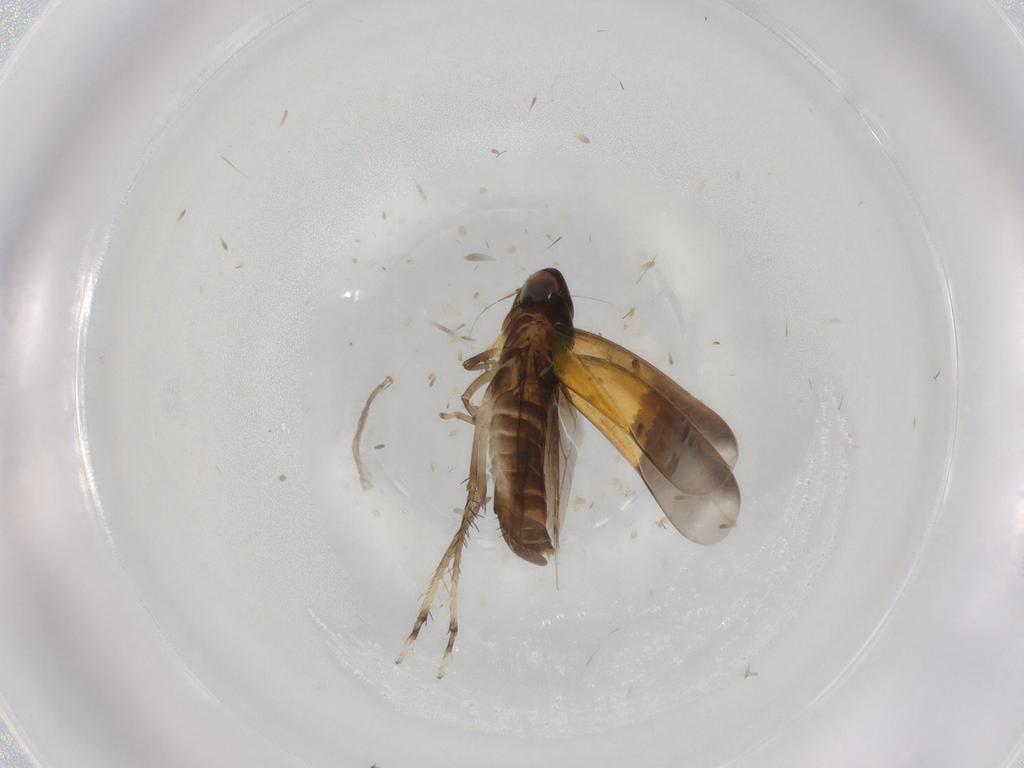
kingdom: Animalia
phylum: Arthropoda
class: Insecta
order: Hemiptera
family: Cicadellidae
